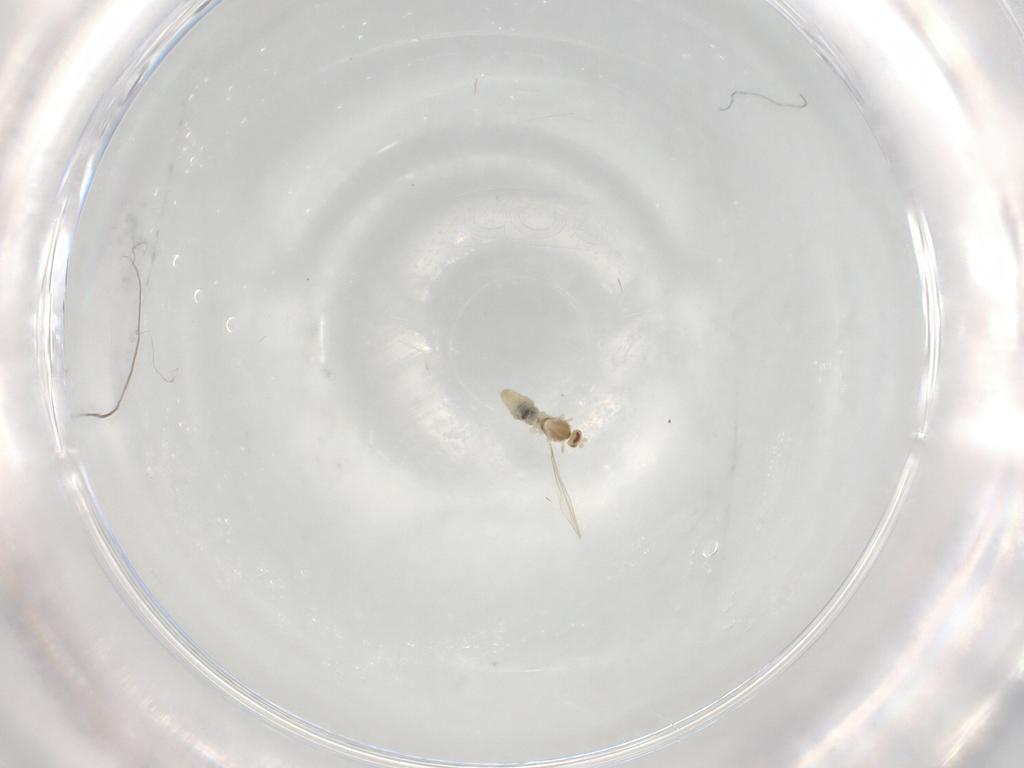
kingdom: Animalia
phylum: Arthropoda
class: Insecta
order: Diptera
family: Cecidomyiidae
